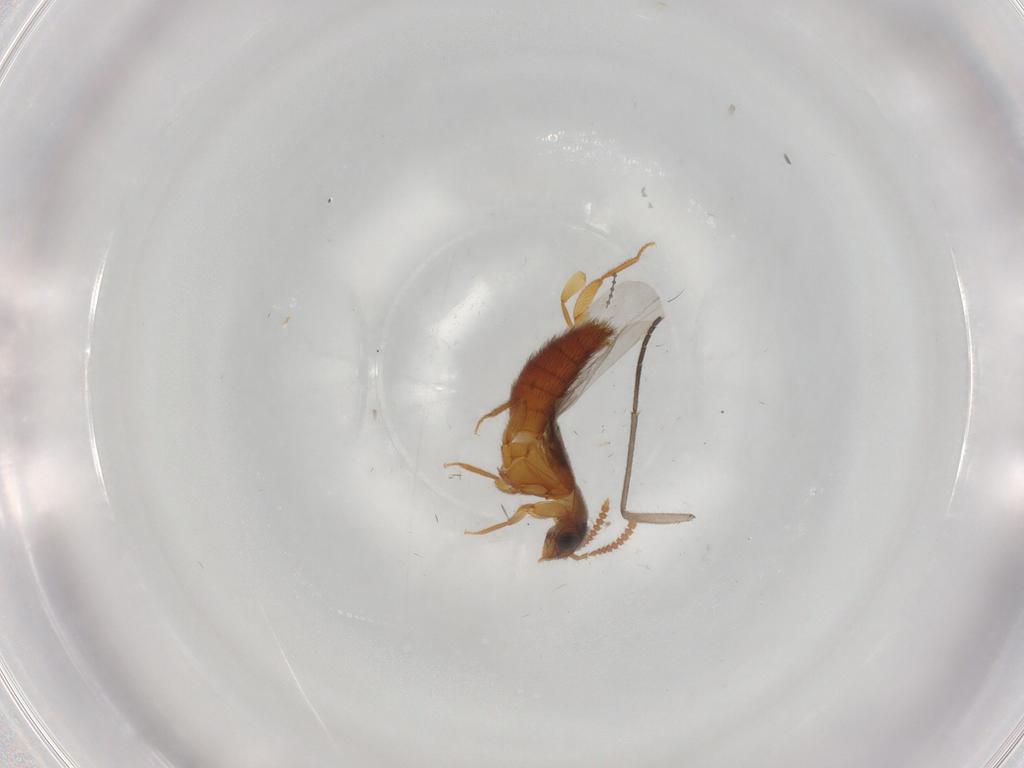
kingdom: Animalia
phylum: Arthropoda
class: Insecta
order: Coleoptera
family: Staphylinidae
